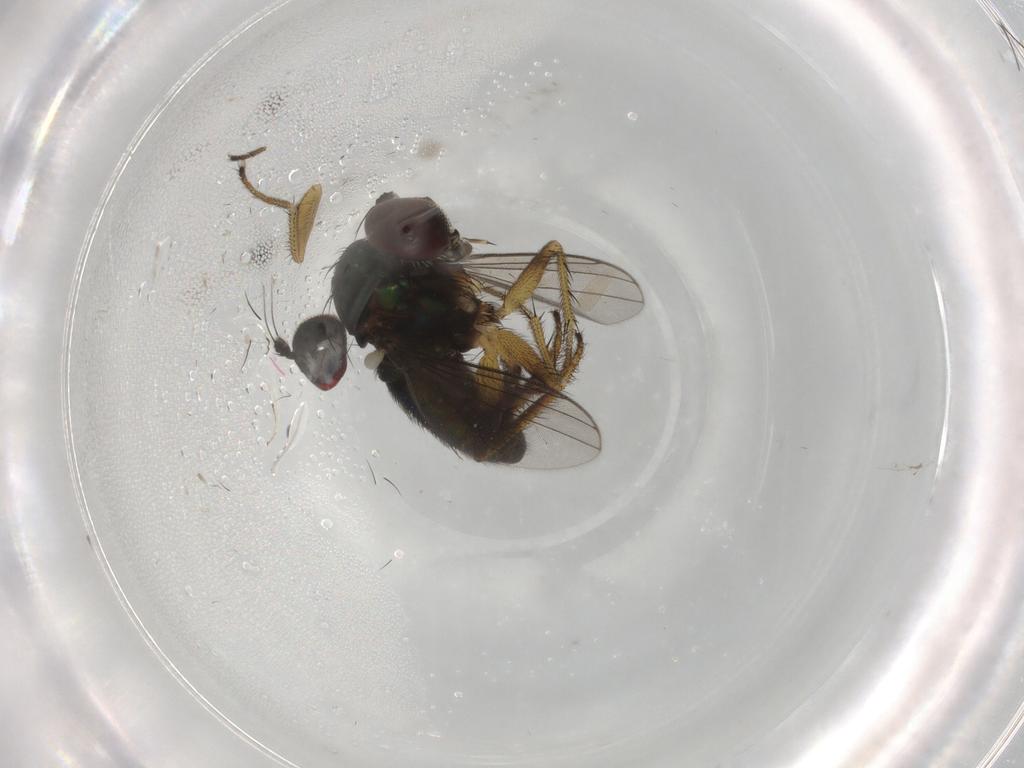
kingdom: Animalia
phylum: Arthropoda
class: Insecta
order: Diptera
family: Dolichopodidae
